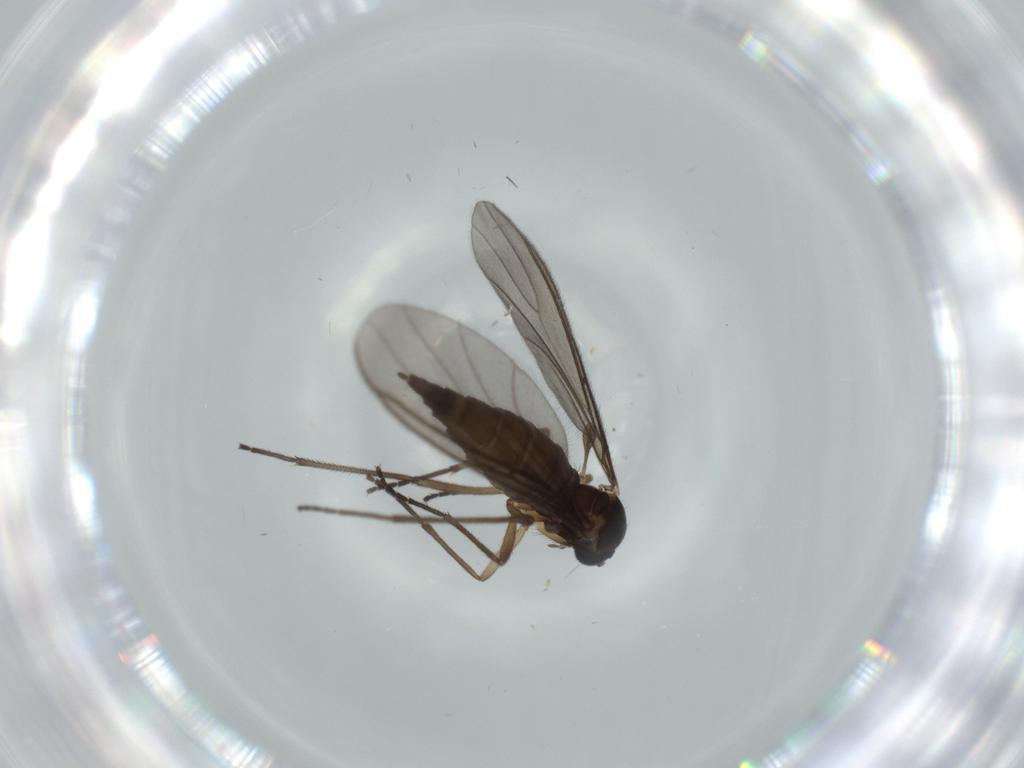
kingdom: Animalia
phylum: Arthropoda
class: Insecta
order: Diptera
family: Sciaridae
